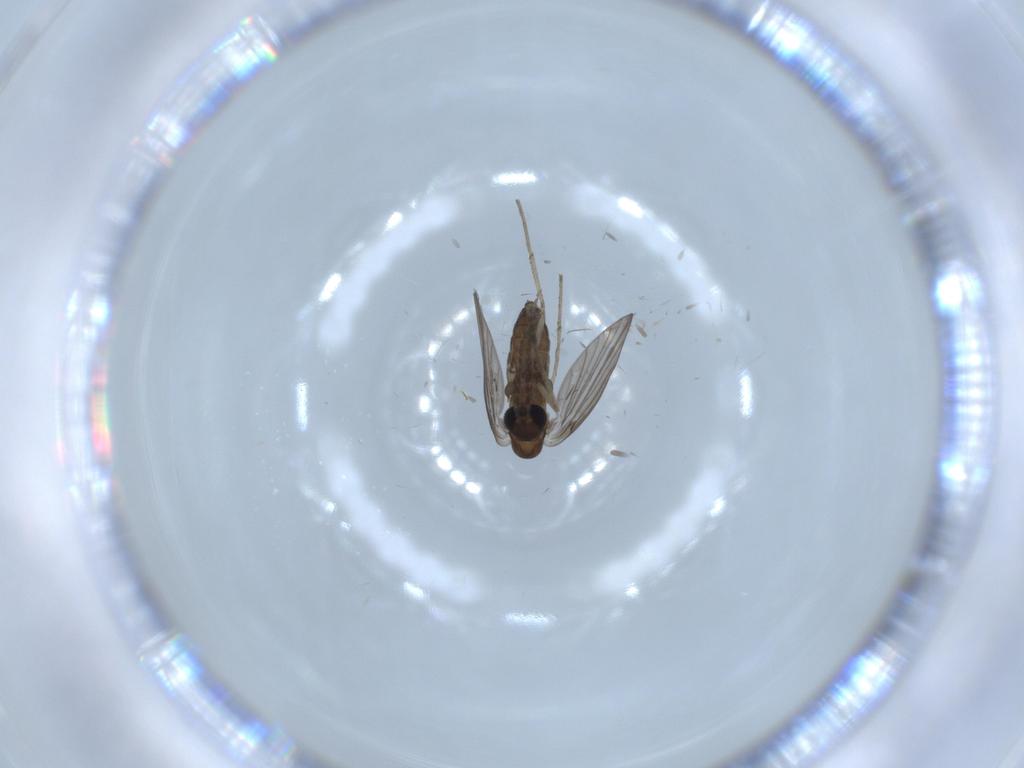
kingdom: Animalia
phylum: Arthropoda
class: Insecta
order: Diptera
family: Psychodidae
